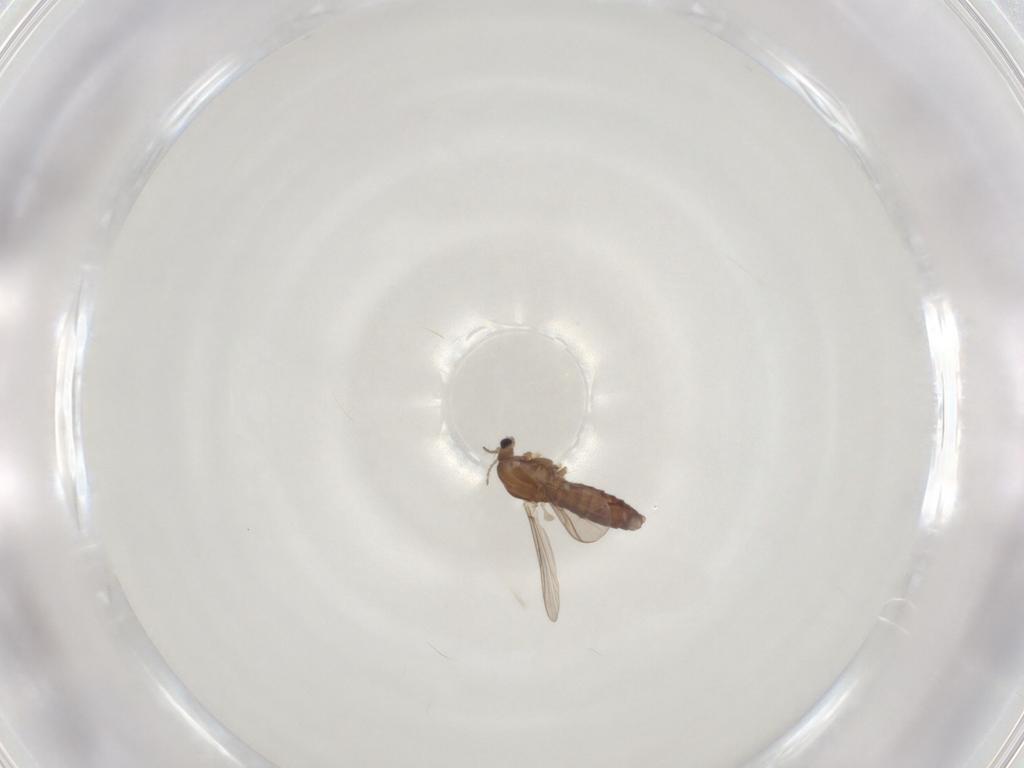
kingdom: Animalia
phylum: Arthropoda
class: Insecta
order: Diptera
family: Chironomidae
